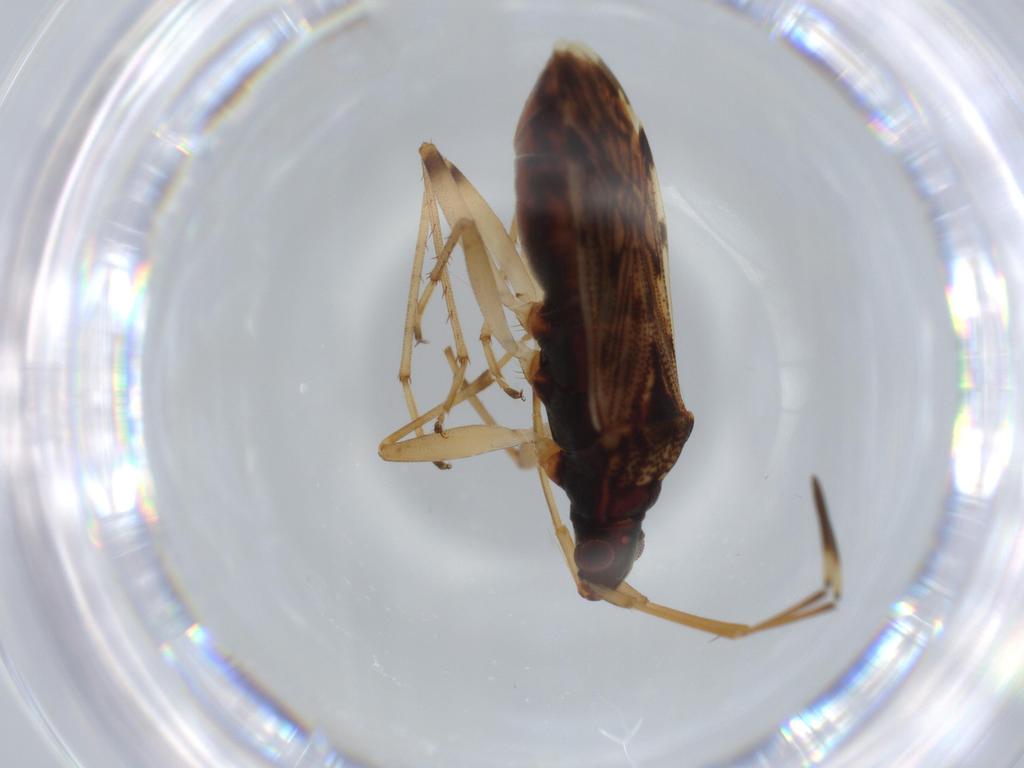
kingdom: Animalia
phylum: Arthropoda
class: Insecta
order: Hemiptera
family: Rhyparochromidae
